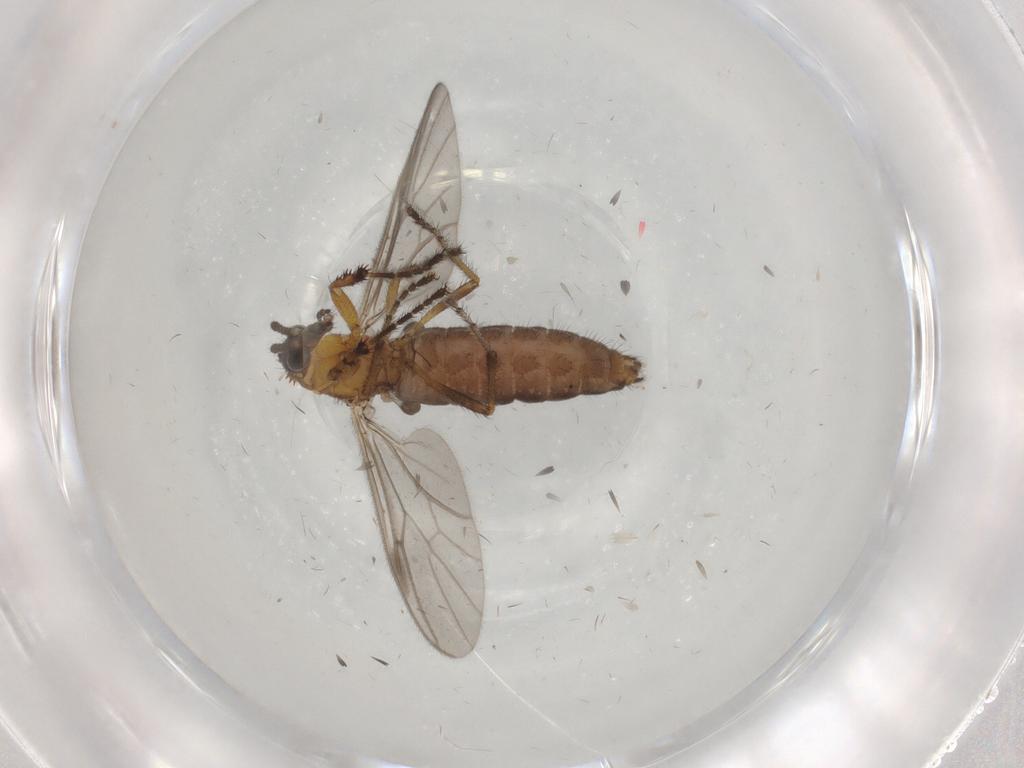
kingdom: Animalia
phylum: Arthropoda
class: Insecta
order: Diptera
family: Bibionidae
